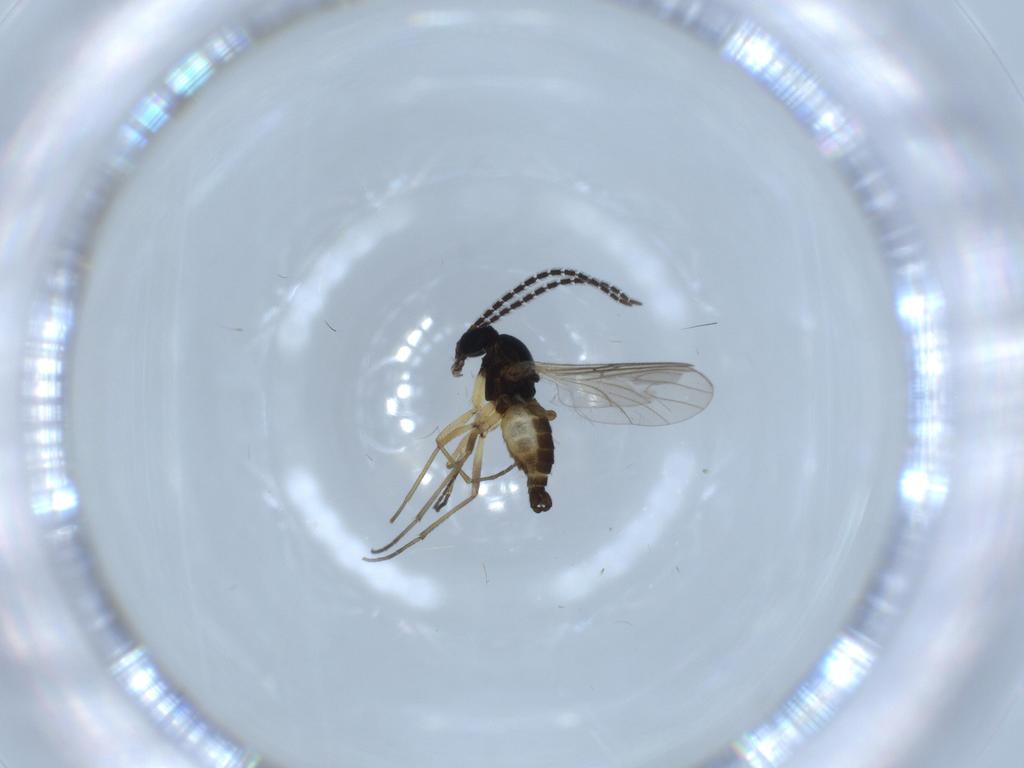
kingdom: Animalia
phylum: Arthropoda
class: Insecta
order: Diptera
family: Sciaridae
